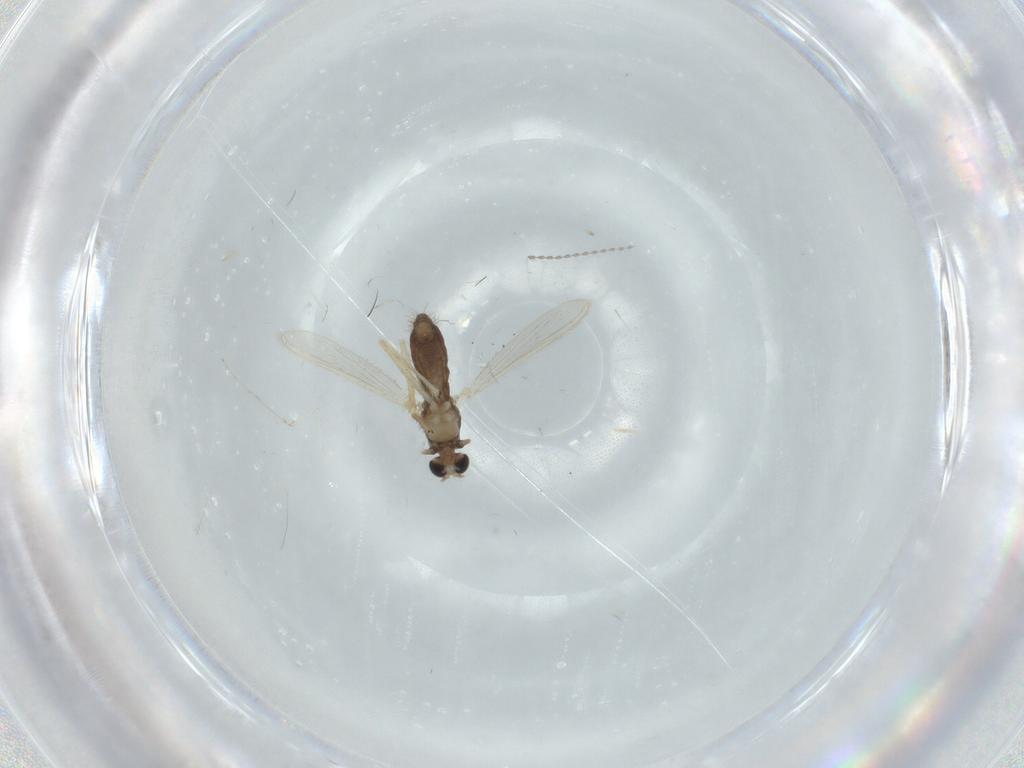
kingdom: Animalia
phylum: Arthropoda
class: Insecta
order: Diptera
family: Chironomidae
